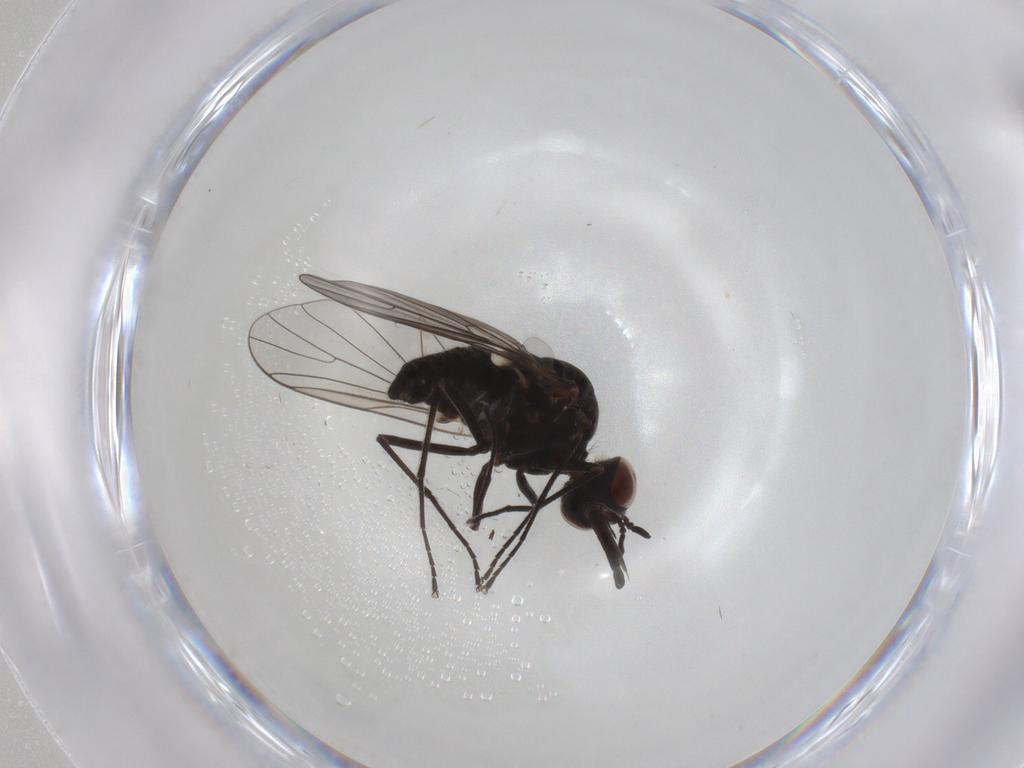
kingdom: Animalia
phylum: Arthropoda
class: Insecta
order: Diptera
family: Bombyliidae
